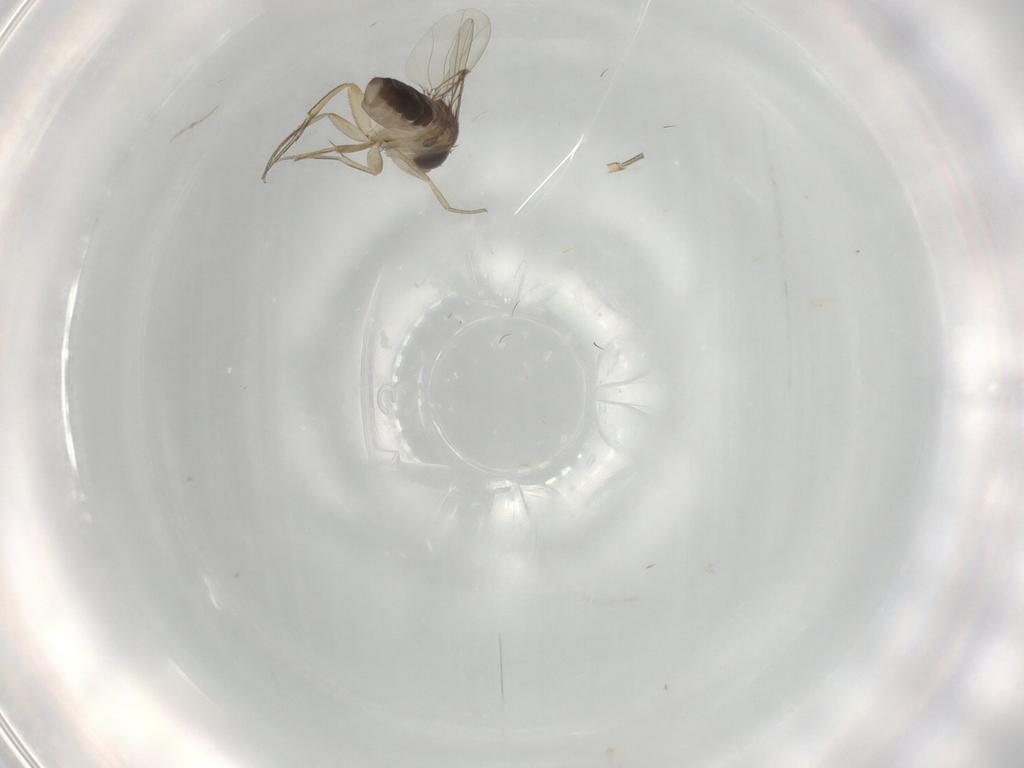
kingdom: Animalia
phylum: Arthropoda
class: Insecta
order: Diptera
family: Phoridae
